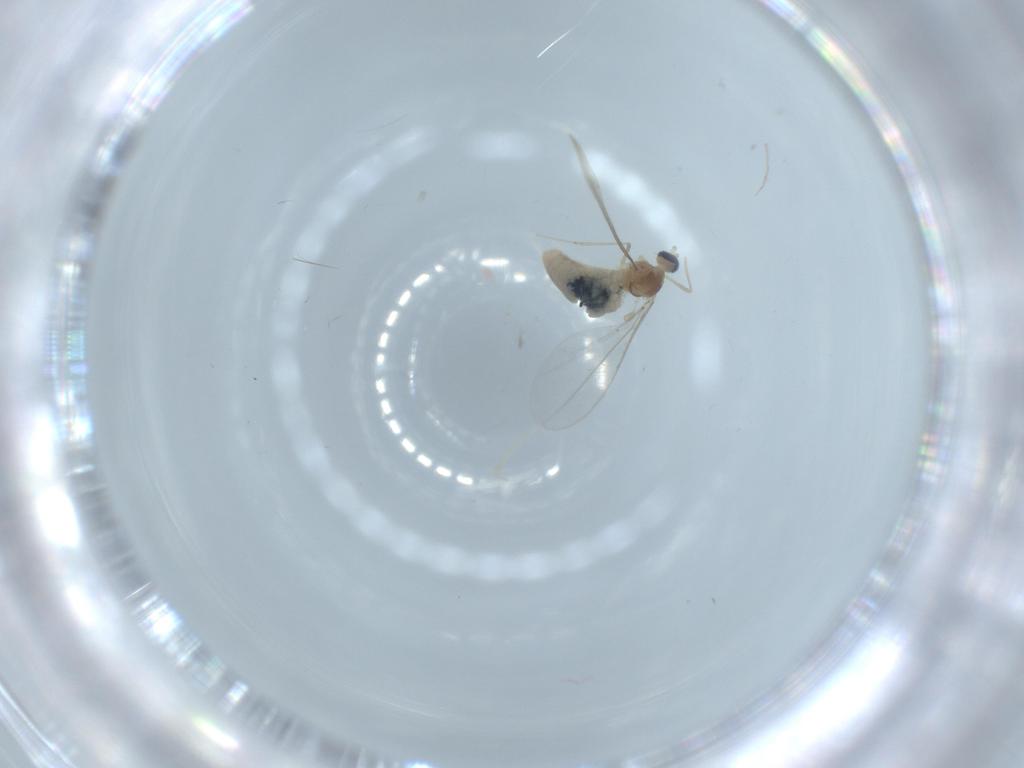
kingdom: Animalia
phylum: Arthropoda
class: Insecta
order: Diptera
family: Cecidomyiidae
